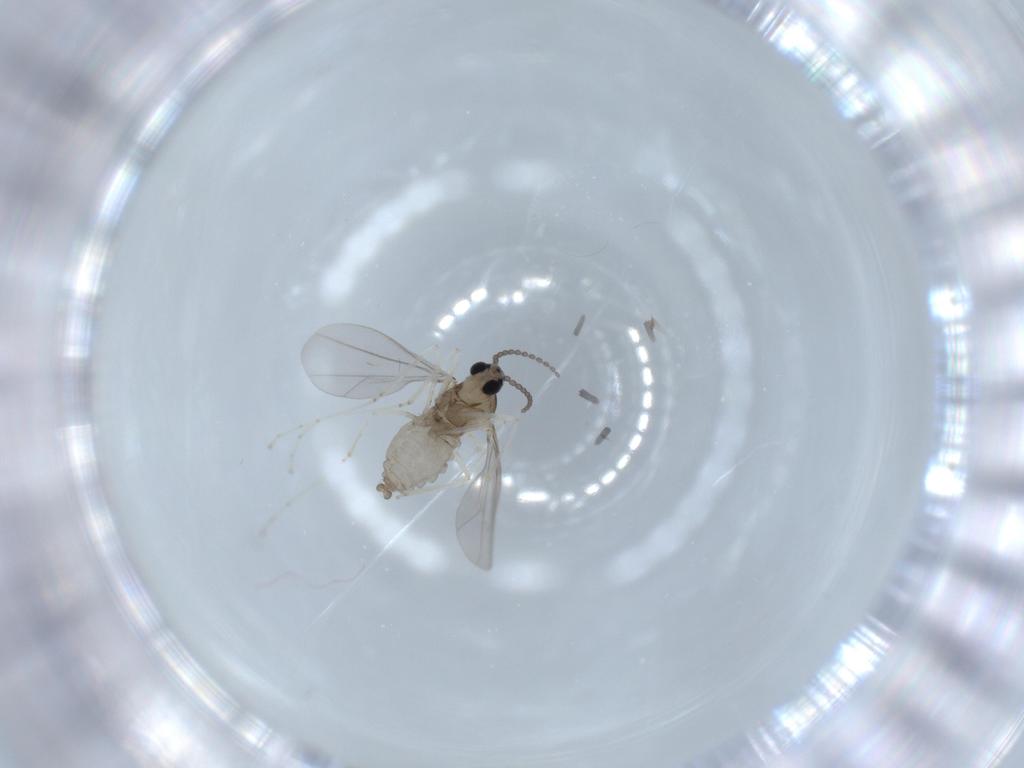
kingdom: Animalia
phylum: Arthropoda
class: Insecta
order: Diptera
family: Cecidomyiidae
